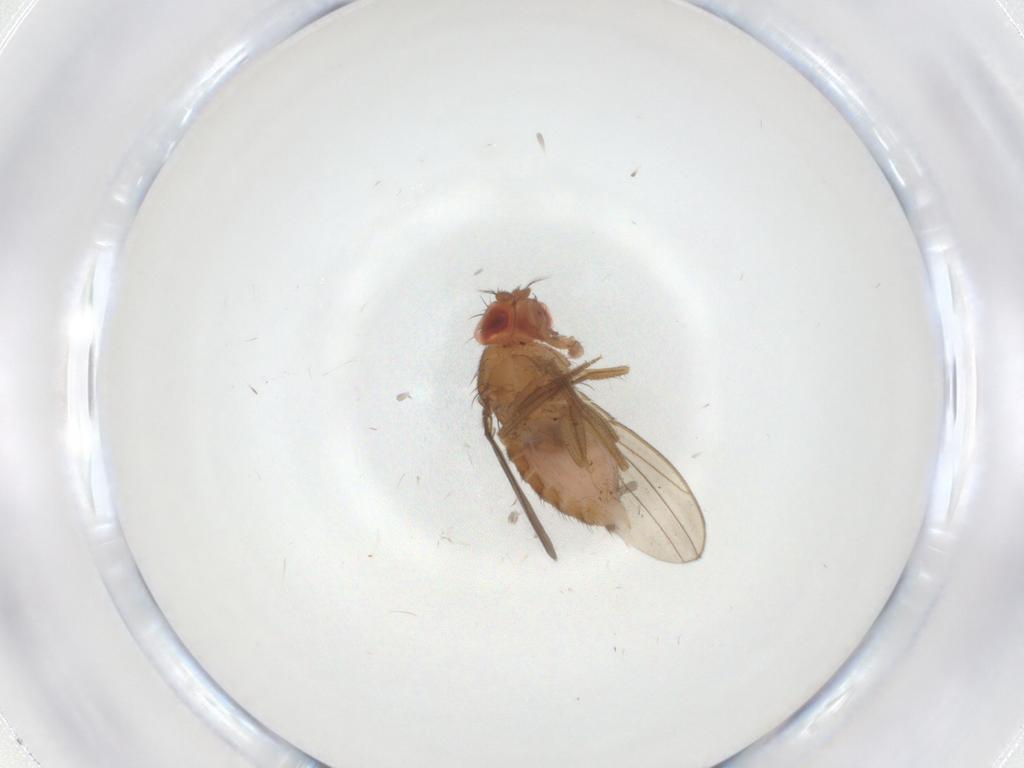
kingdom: Animalia
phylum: Arthropoda
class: Insecta
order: Diptera
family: Drosophilidae
